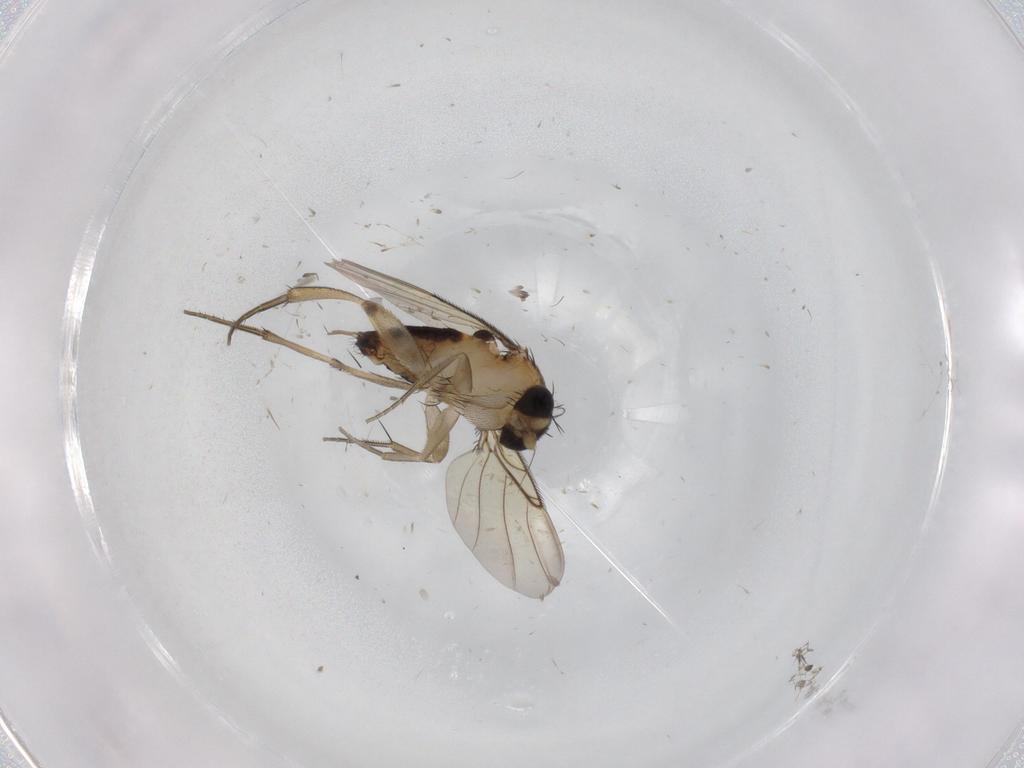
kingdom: Animalia
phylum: Arthropoda
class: Insecta
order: Diptera
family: Phoridae
